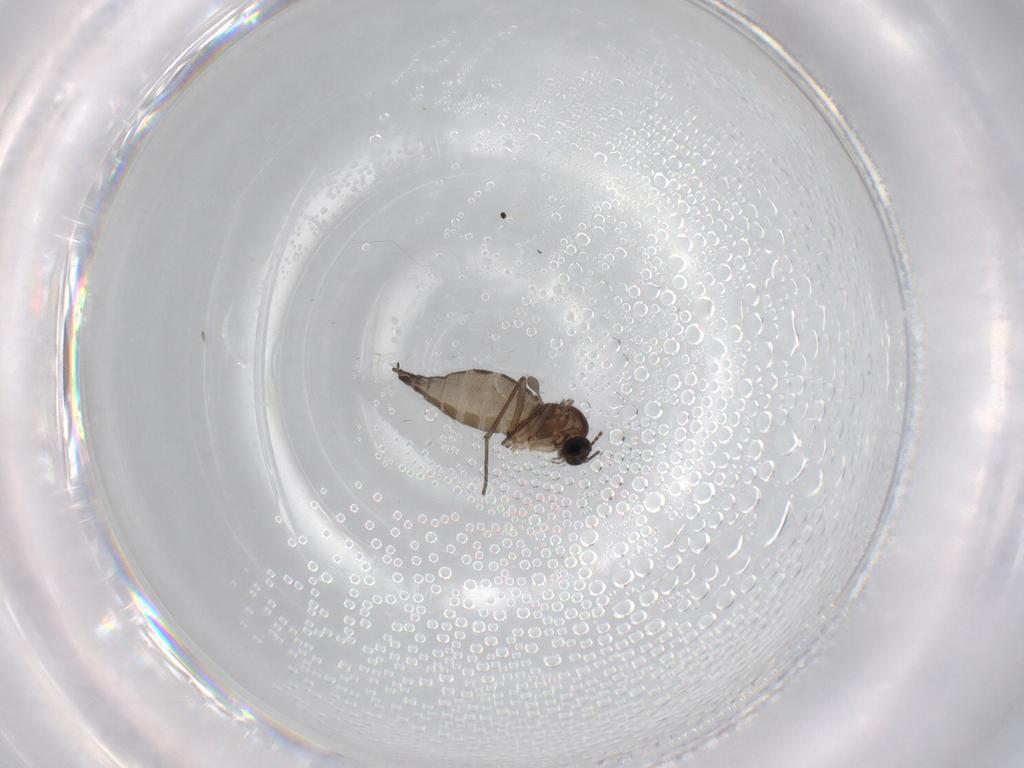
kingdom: Animalia
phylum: Arthropoda
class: Insecta
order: Diptera
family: Sciaridae
